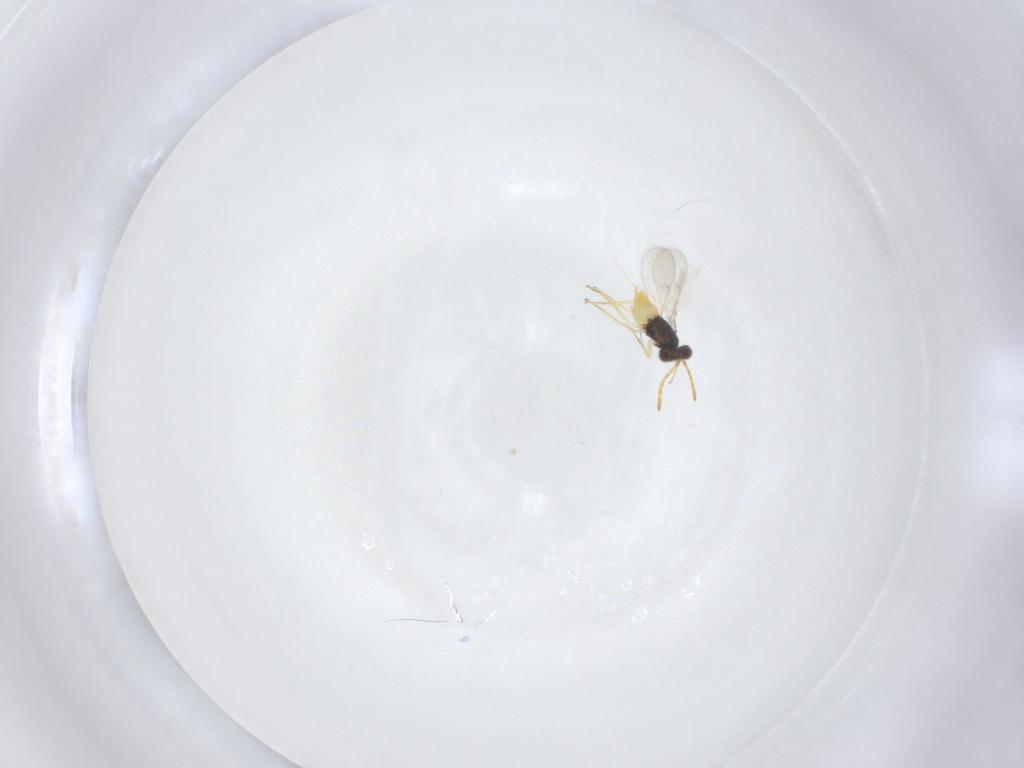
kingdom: Animalia
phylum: Arthropoda
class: Insecta
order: Hymenoptera
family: Aphelinidae
